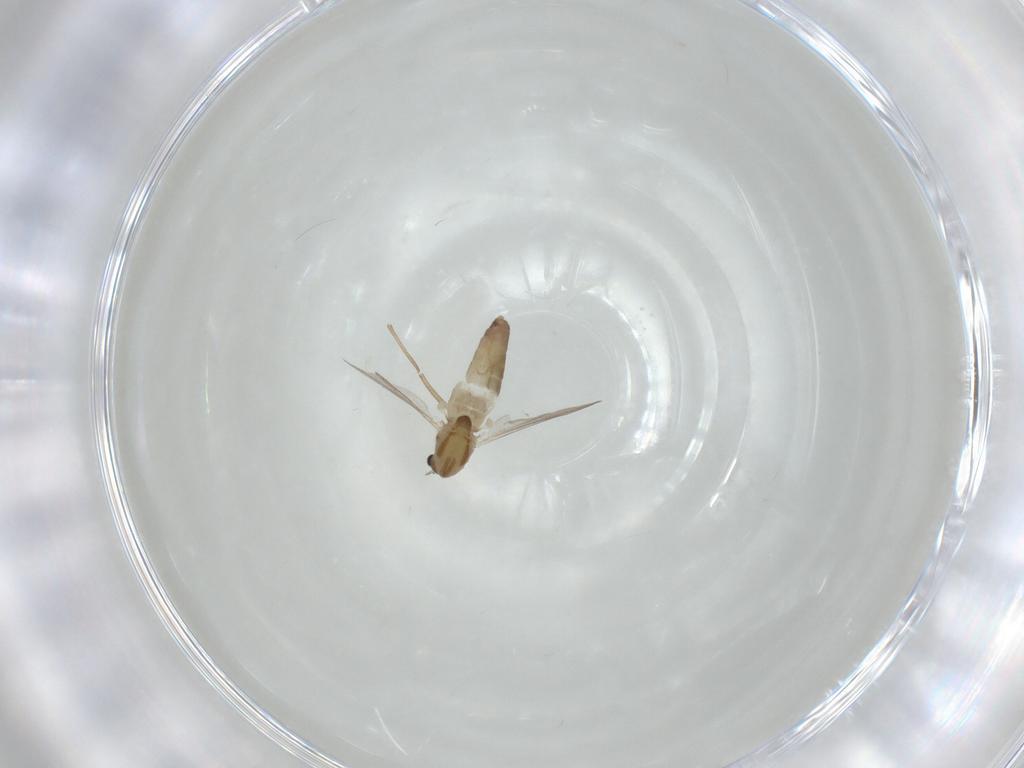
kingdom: Animalia
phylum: Arthropoda
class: Insecta
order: Diptera
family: Chironomidae
